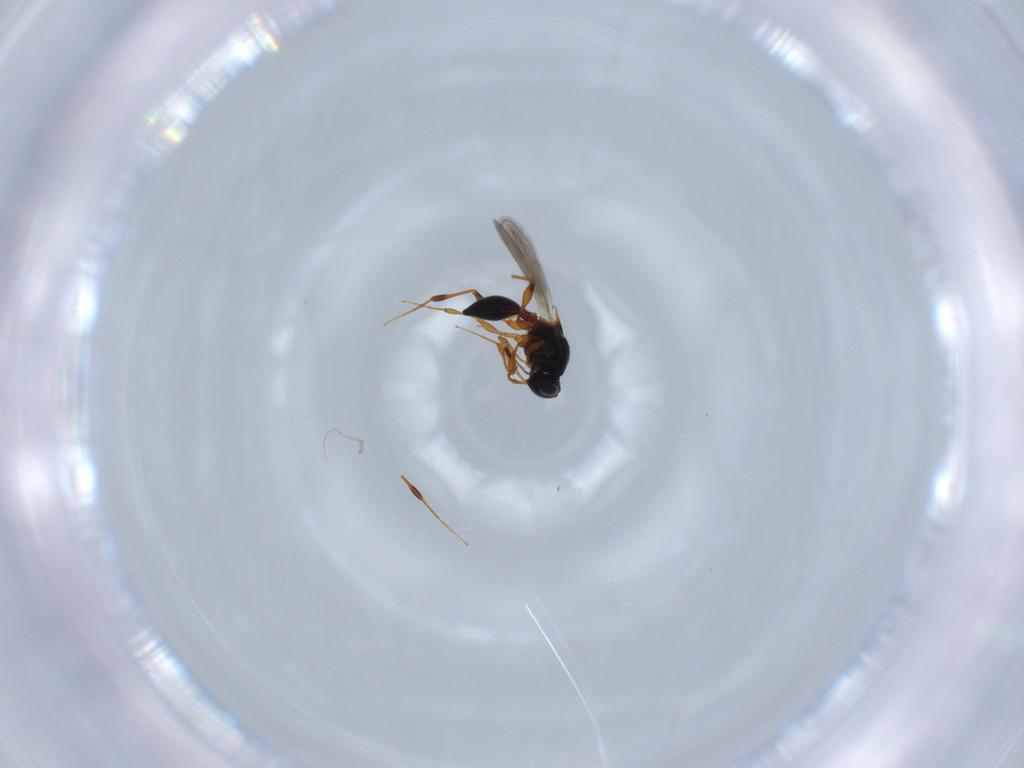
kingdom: Animalia
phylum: Arthropoda
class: Insecta
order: Hymenoptera
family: Platygastridae
